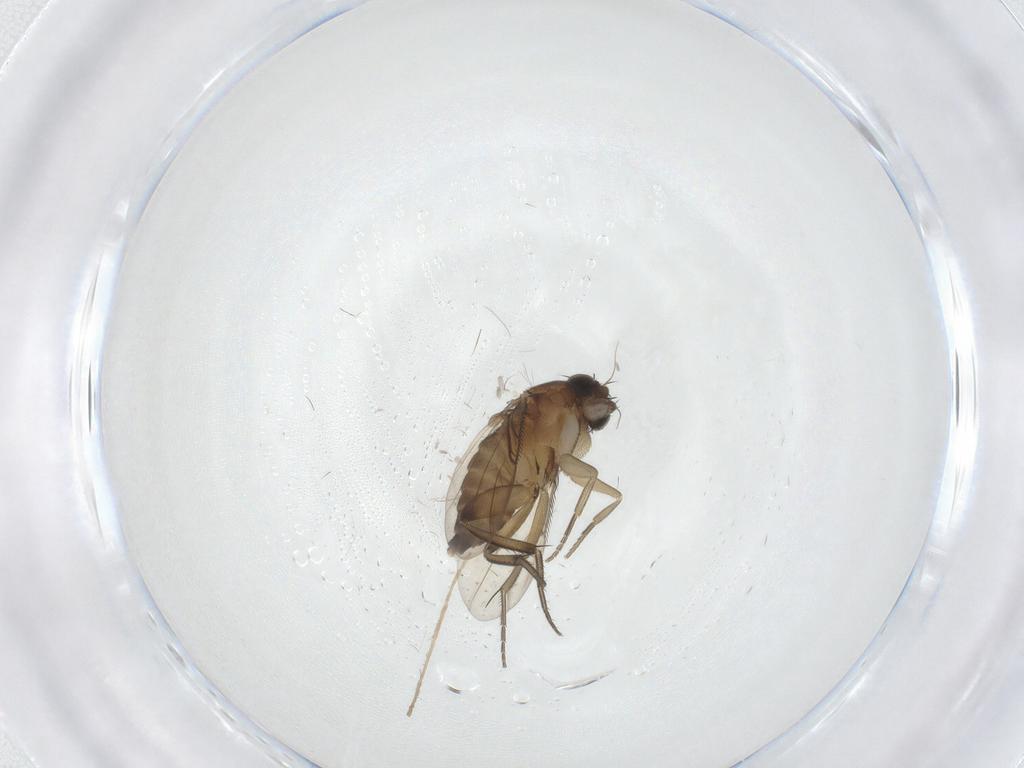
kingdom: Animalia
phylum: Arthropoda
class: Insecta
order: Diptera
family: Phoridae
